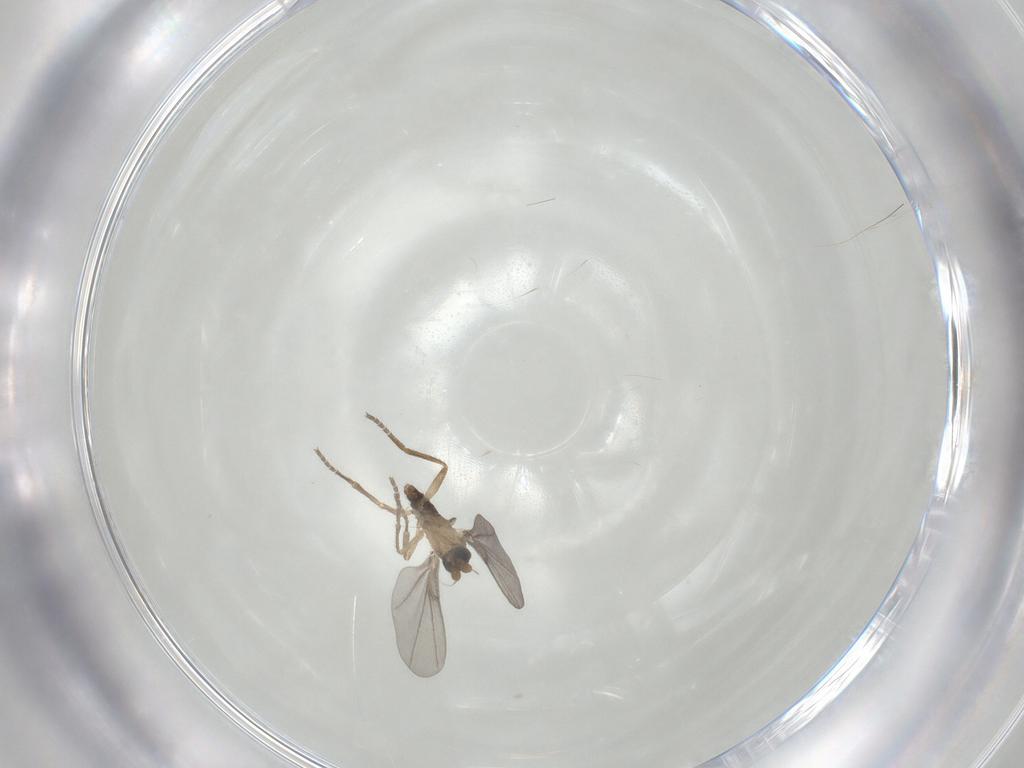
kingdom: Animalia
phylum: Arthropoda
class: Insecta
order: Diptera
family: Phoridae
